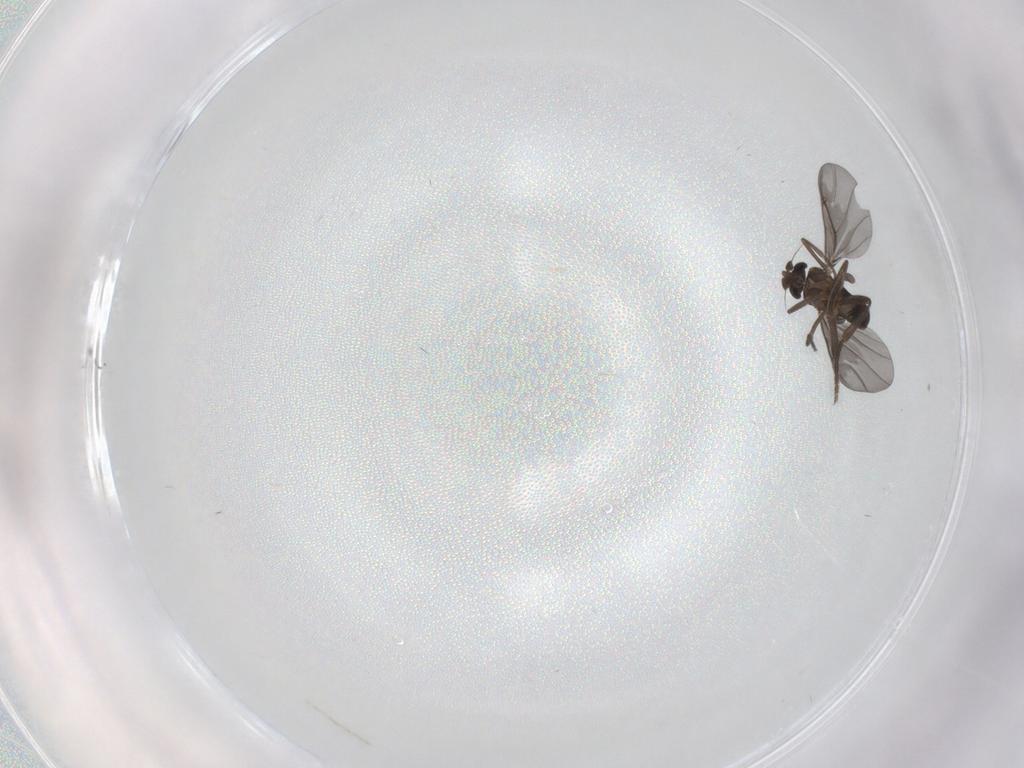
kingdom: Animalia
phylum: Arthropoda
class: Insecta
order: Diptera
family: Phoridae
